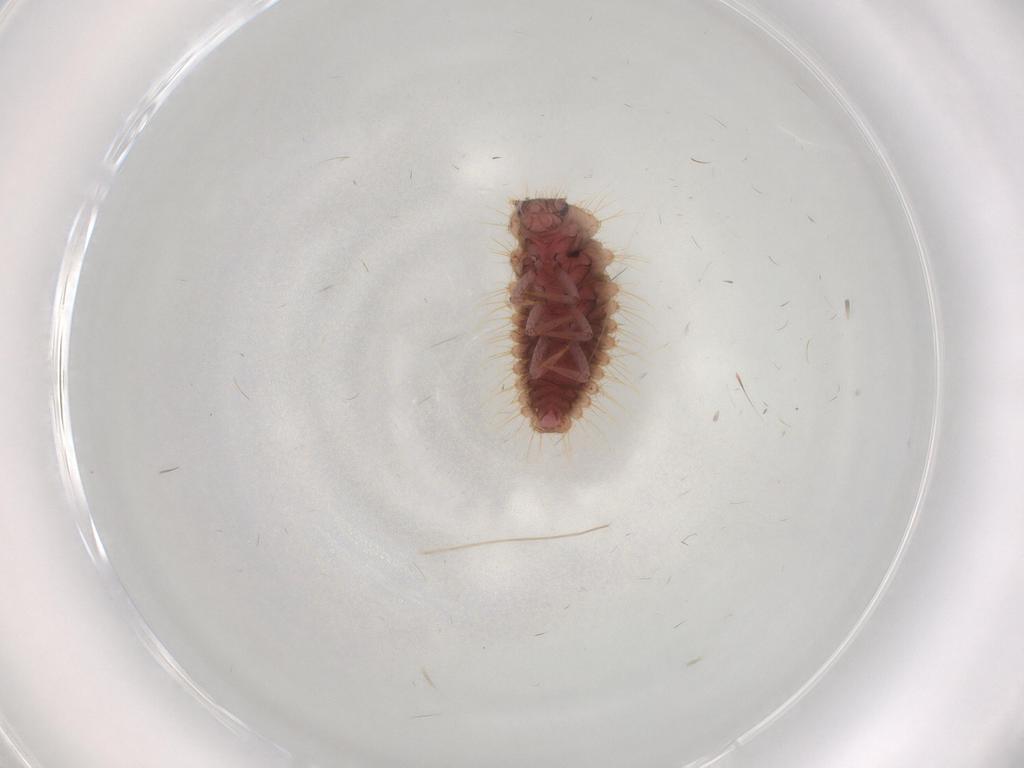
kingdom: Animalia
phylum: Arthropoda
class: Insecta
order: Coleoptera
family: Coccinellidae
